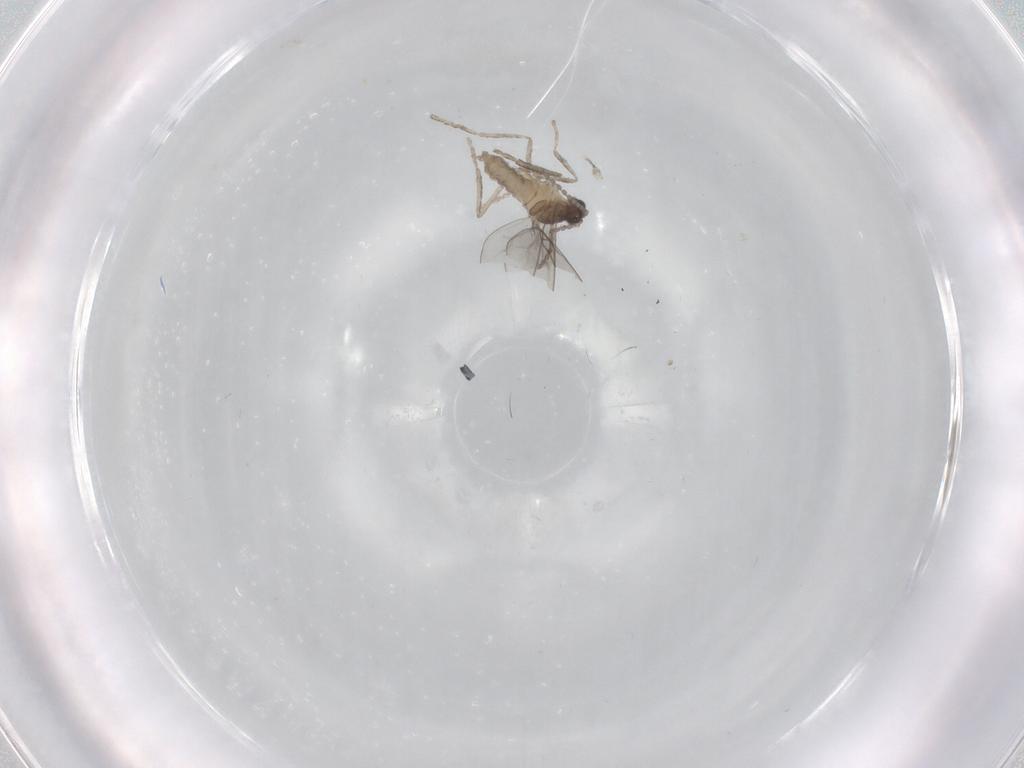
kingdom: Animalia
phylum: Arthropoda
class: Insecta
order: Diptera
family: Cecidomyiidae
